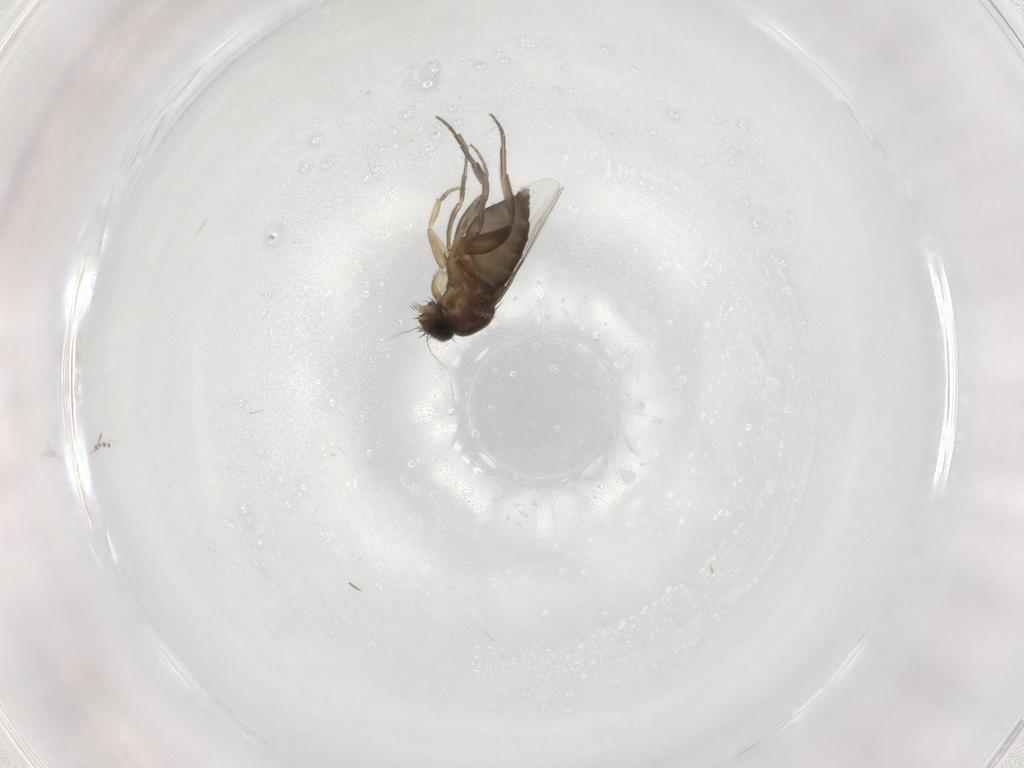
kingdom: Animalia
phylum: Arthropoda
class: Insecta
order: Diptera
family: Phoridae
